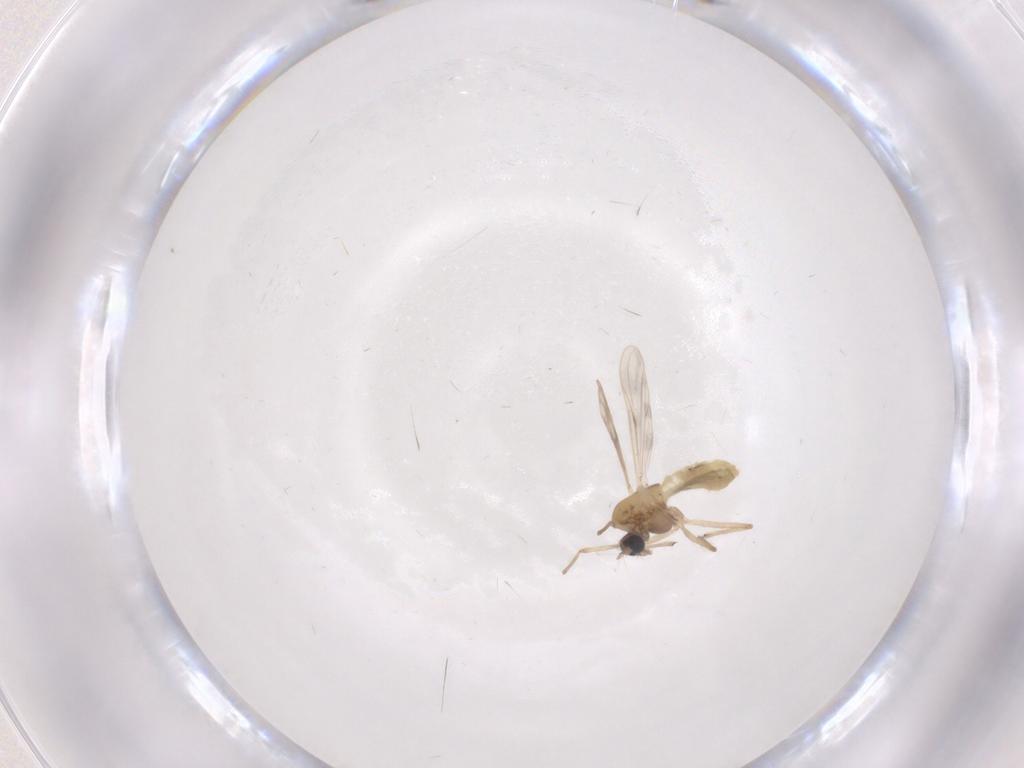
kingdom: Animalia
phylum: Arthropoda
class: Insecta
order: Diptera
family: Chironomidae
